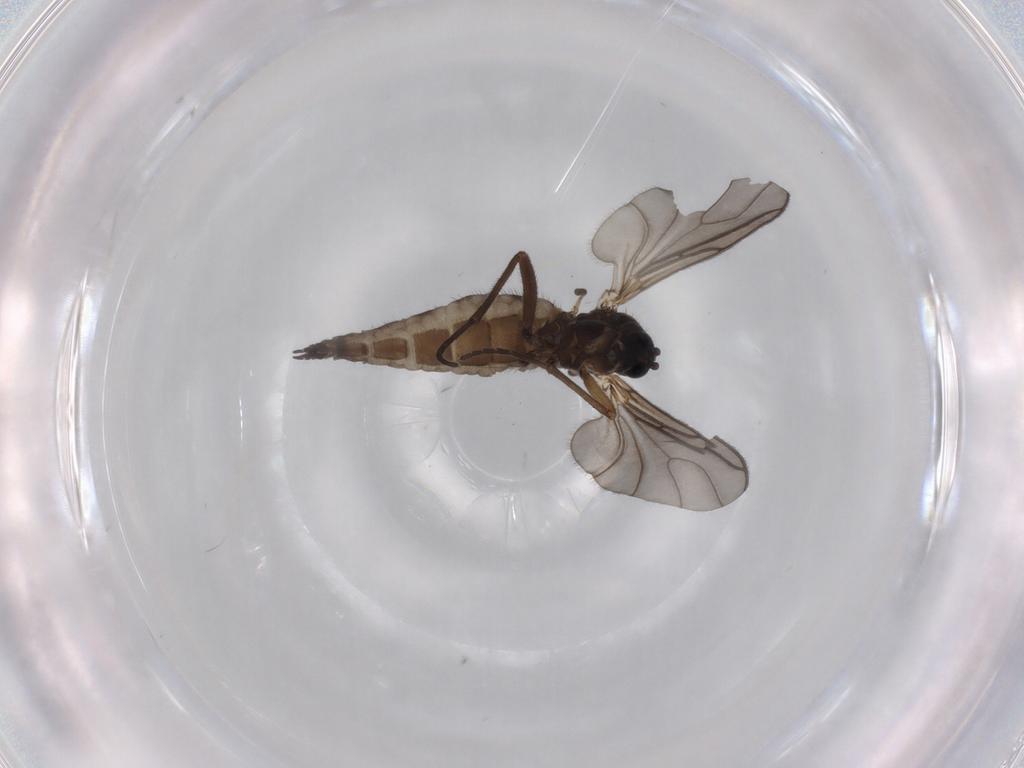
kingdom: Animalia
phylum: Arthropoda
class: Insecta
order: Diptera
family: Sciaridae
